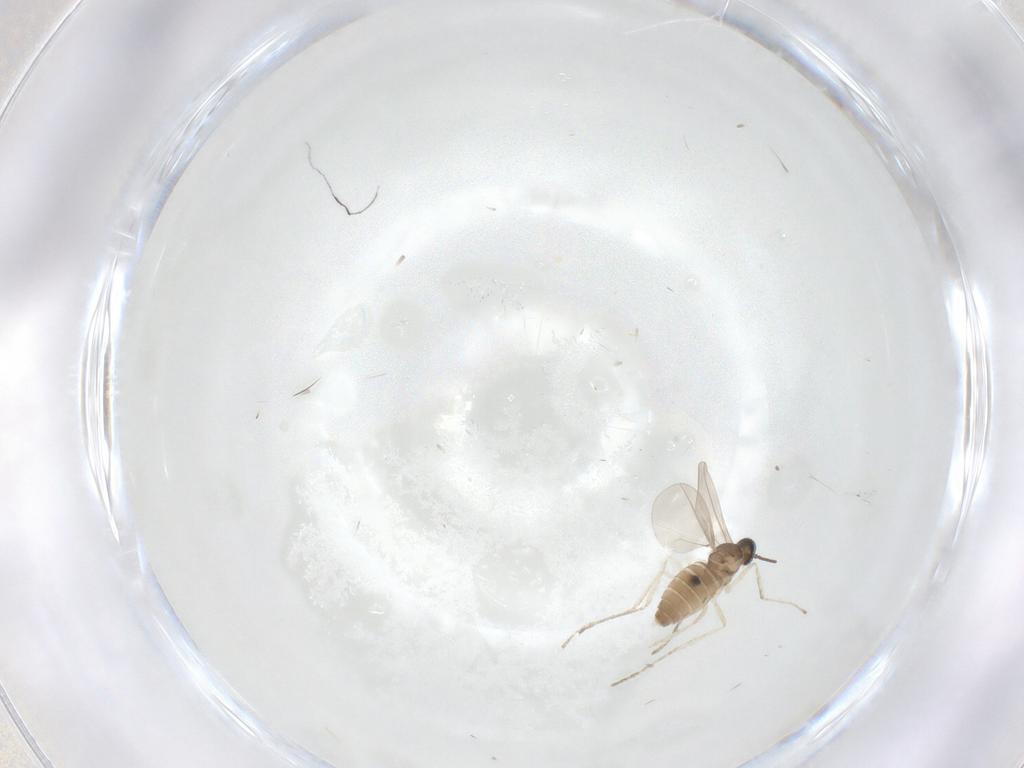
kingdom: Animalia
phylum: Arthropoda
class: Insecta
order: Diptera
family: Cecidomyiidae
